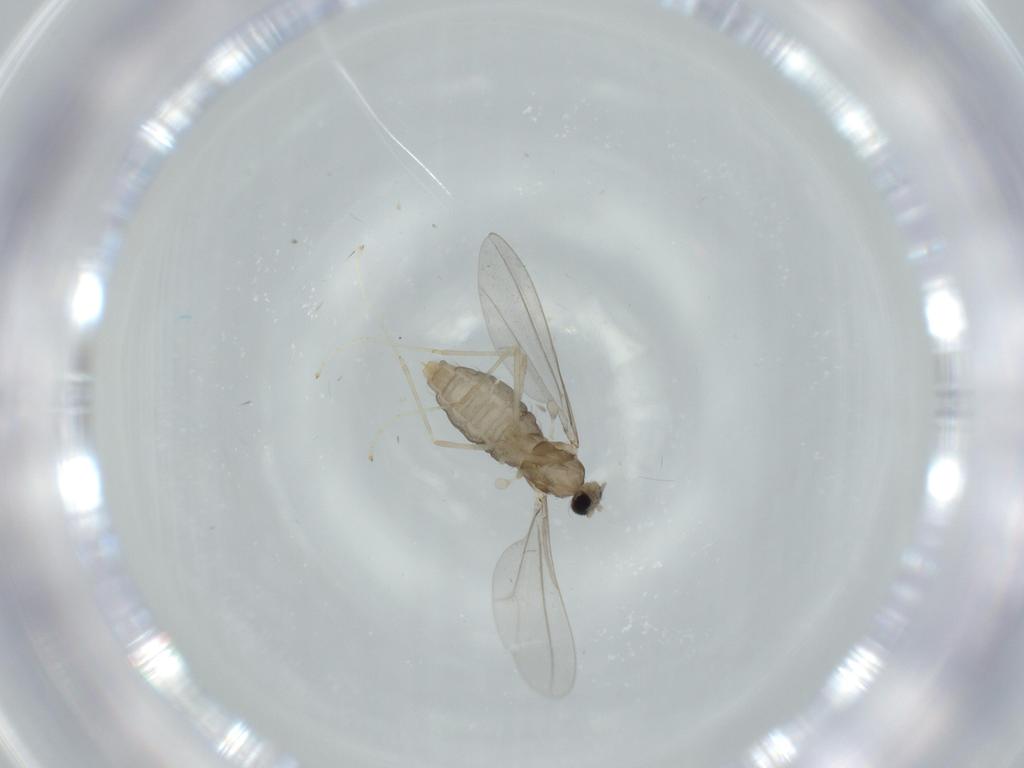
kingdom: Animalia
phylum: Arthropoda
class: Insecta
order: Diptera
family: Cecidomyiidae
